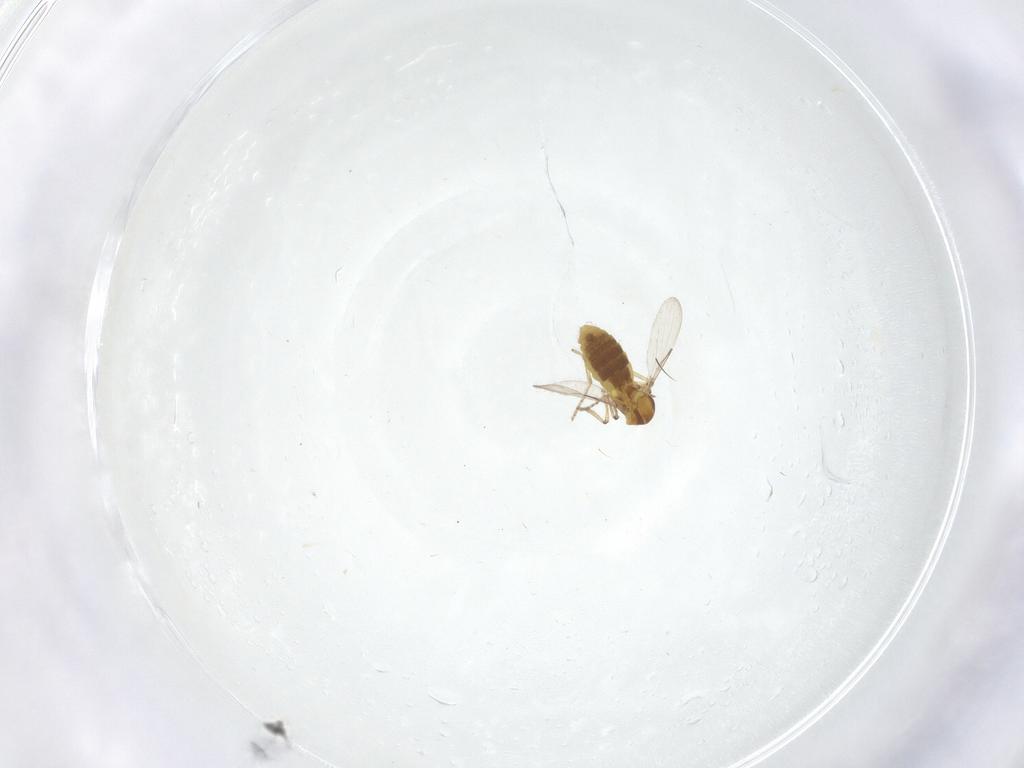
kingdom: Animalia
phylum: Arthropoda
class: Insecta
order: Diptera
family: Ceratopogonidae
